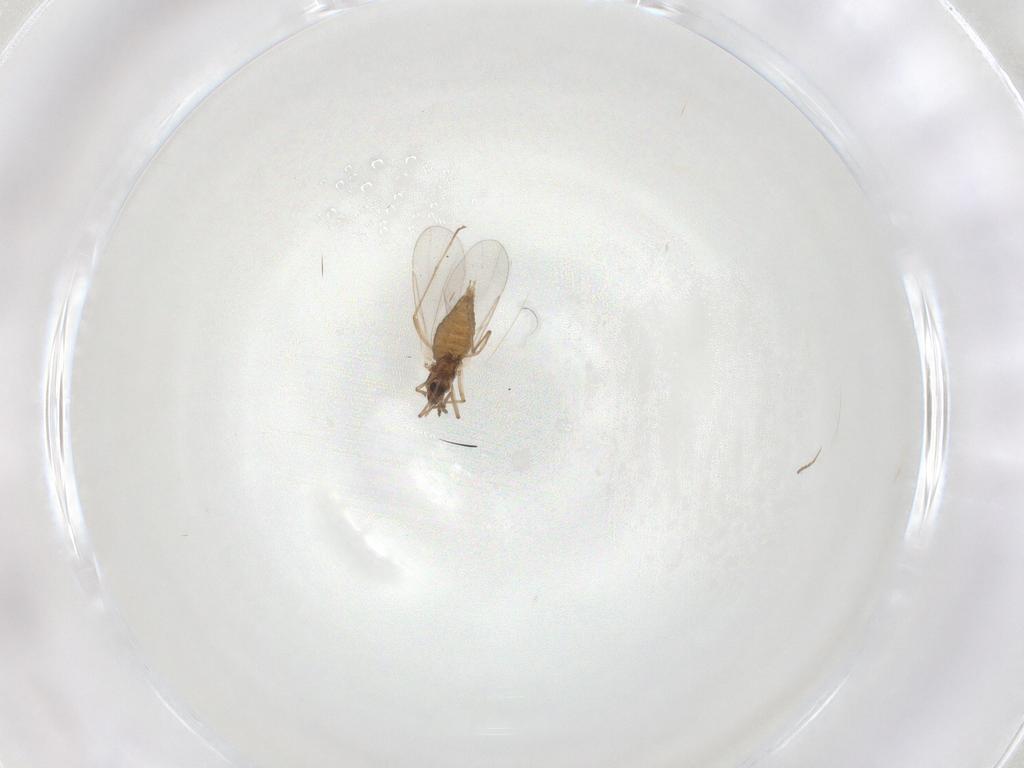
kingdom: Animalia
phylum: Arthropoda
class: Insecta
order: Diptera
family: Cecidomyiidae
